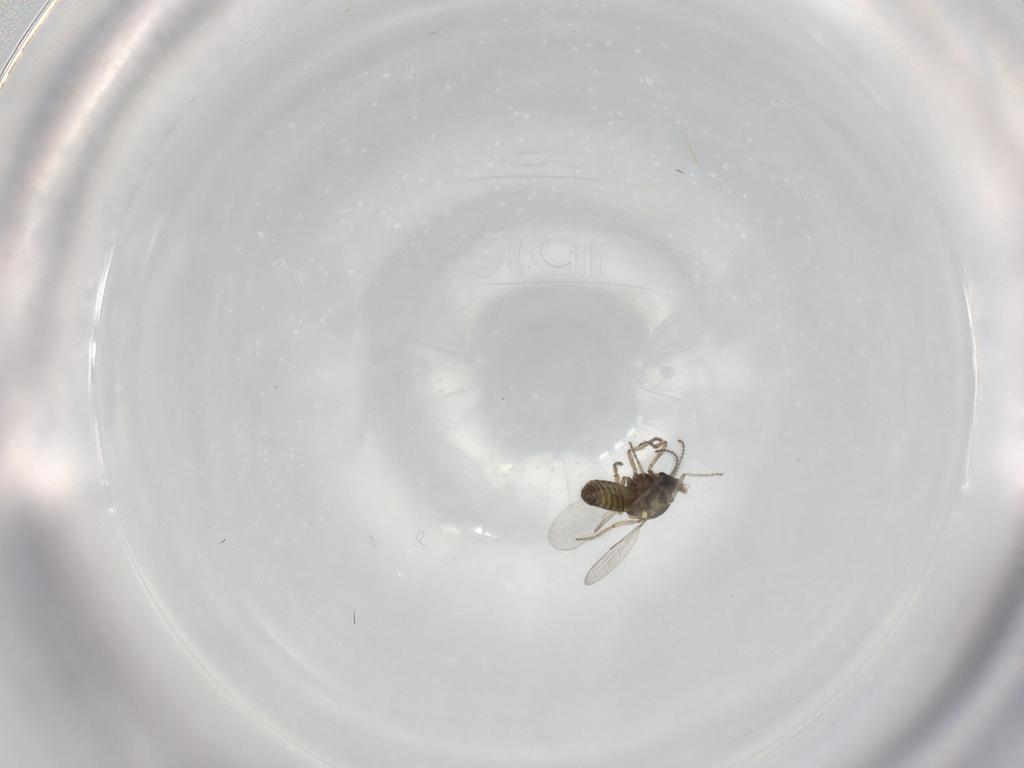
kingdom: Animalia
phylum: Arthropoda
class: Insecta
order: Diptera
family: Ceratopogonidae
